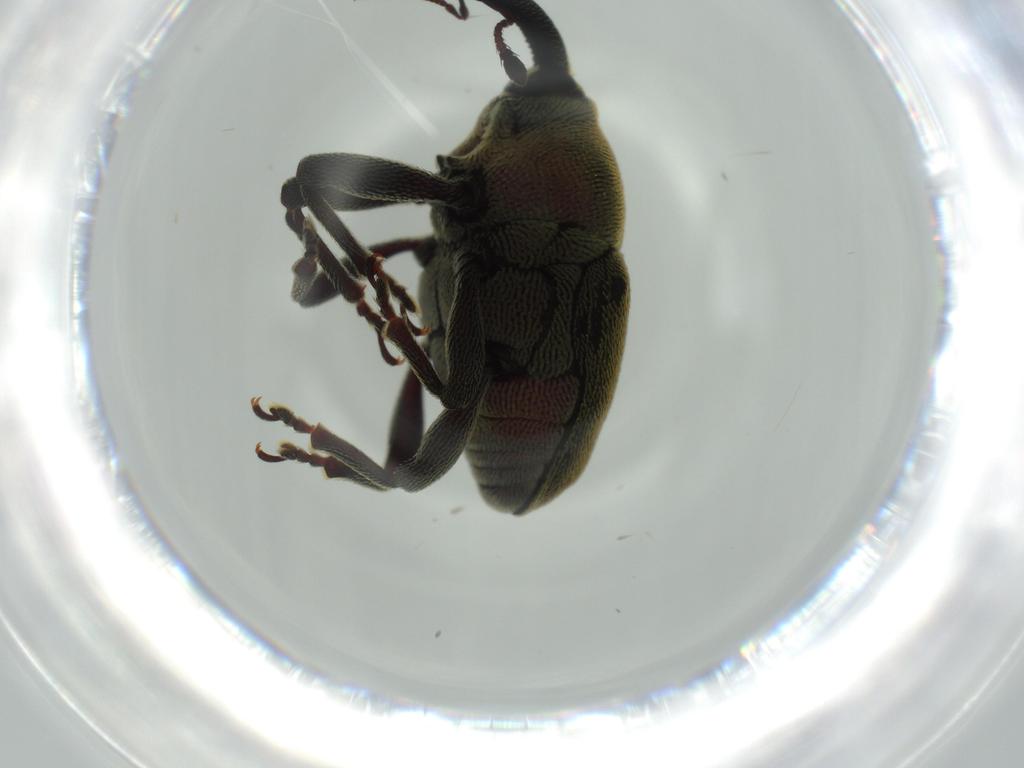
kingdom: Animalia
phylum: Arthropoda
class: Insecta
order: Coleoptera
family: Curculionidae
